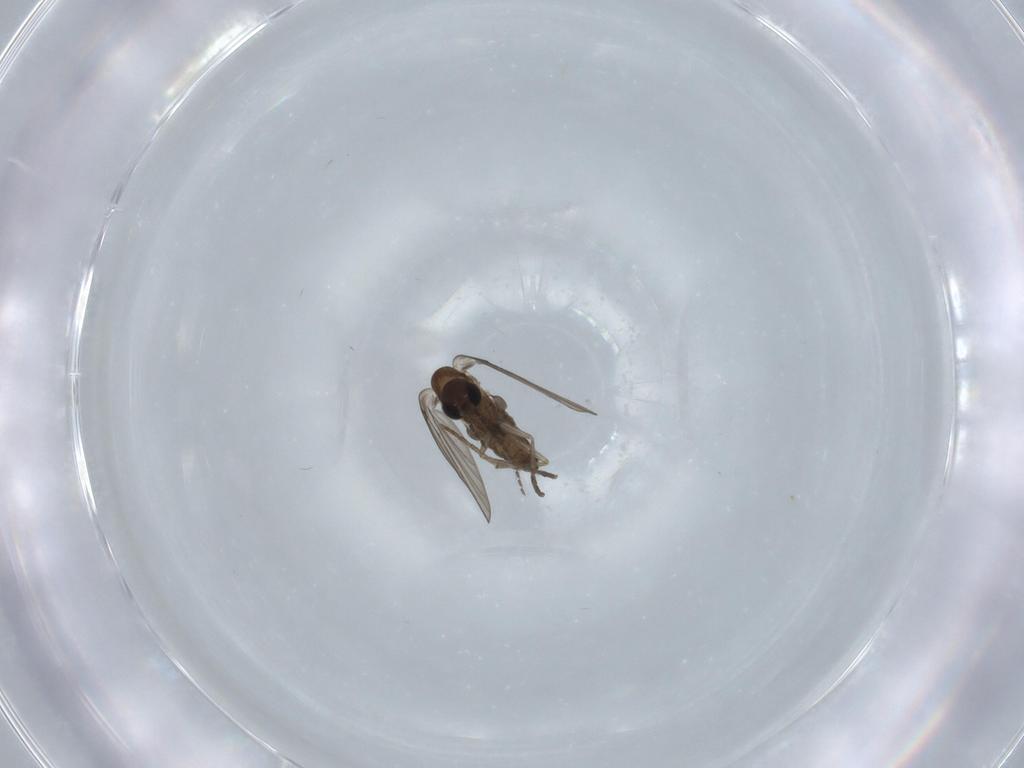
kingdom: Animalia
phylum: Arthropoda
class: Insecta
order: Diptera
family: Psychodidae
